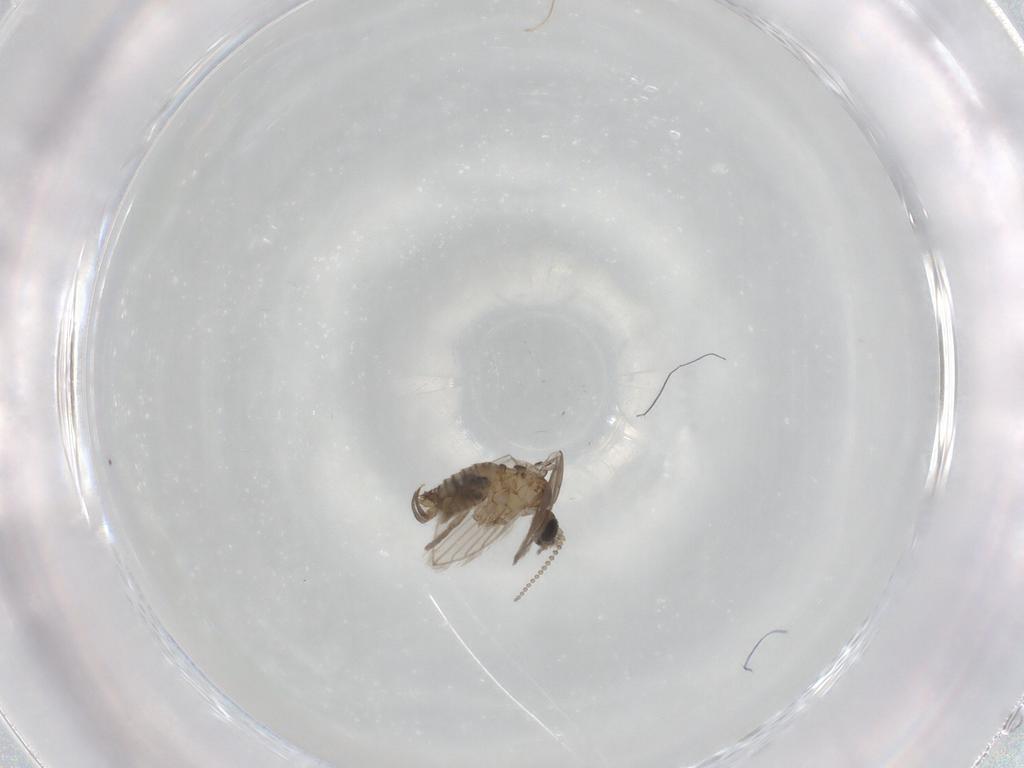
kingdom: Animalia
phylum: Arthropoda
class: Insecta
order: Diptera
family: Psychodidae
